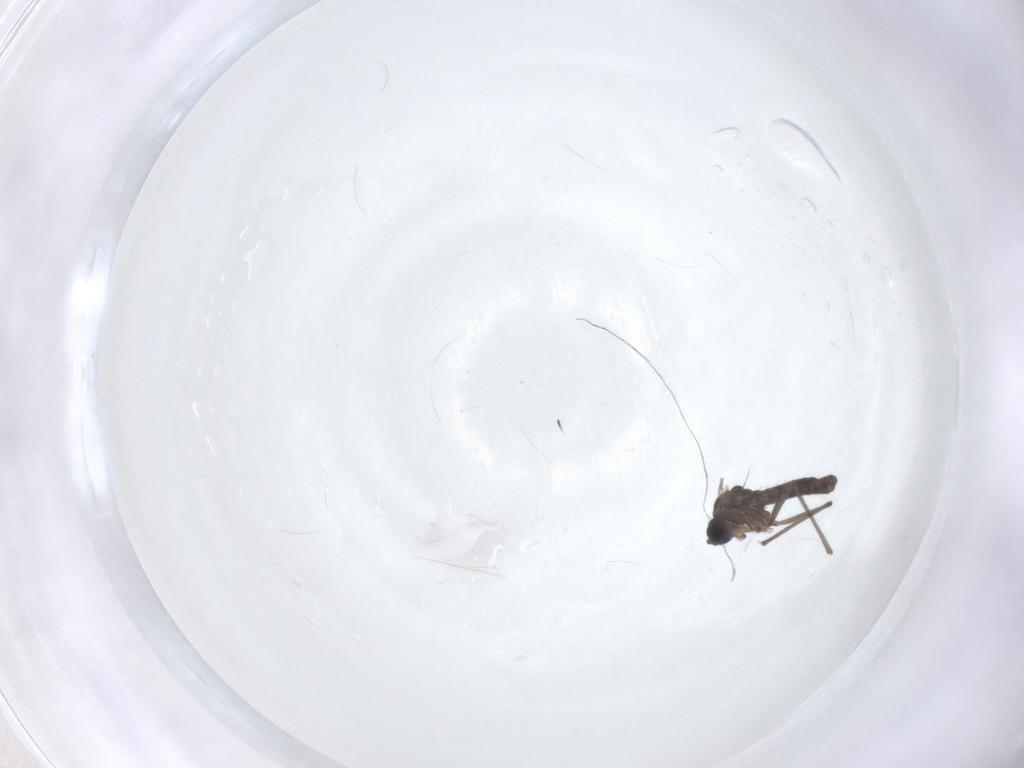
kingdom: Animalia
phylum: Arthropoda
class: Insecta
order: Diptera
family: Sciaridae
